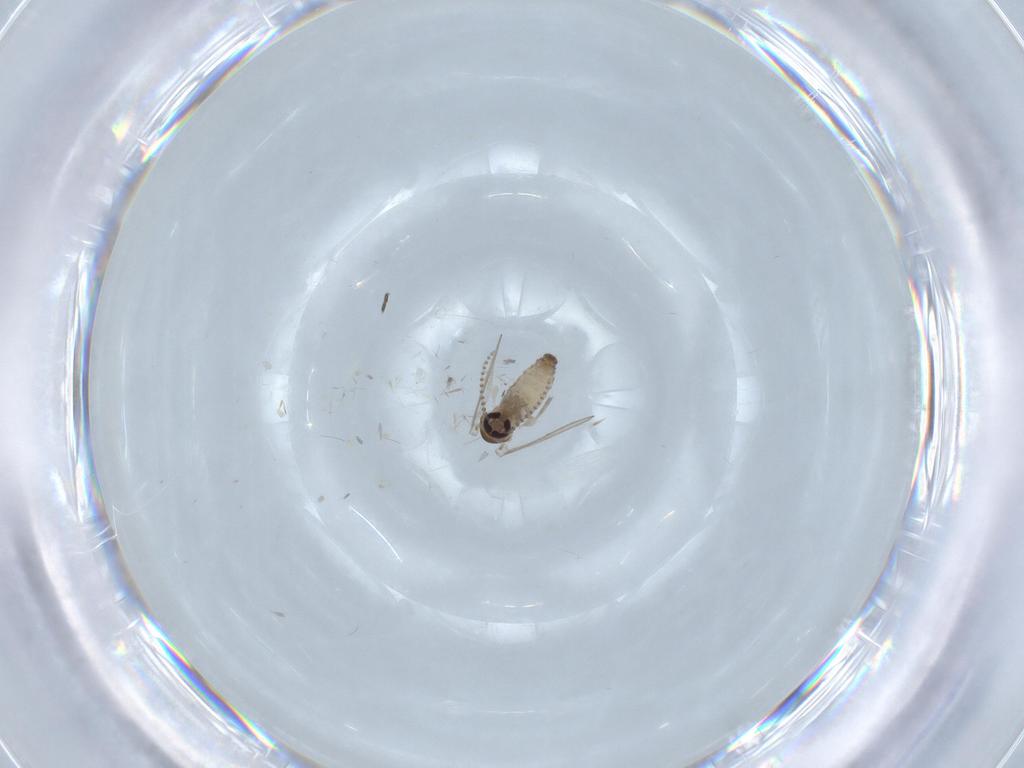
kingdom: Animalia
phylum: Arthropoda
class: Insecta
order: Diptera
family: Psychodidae
